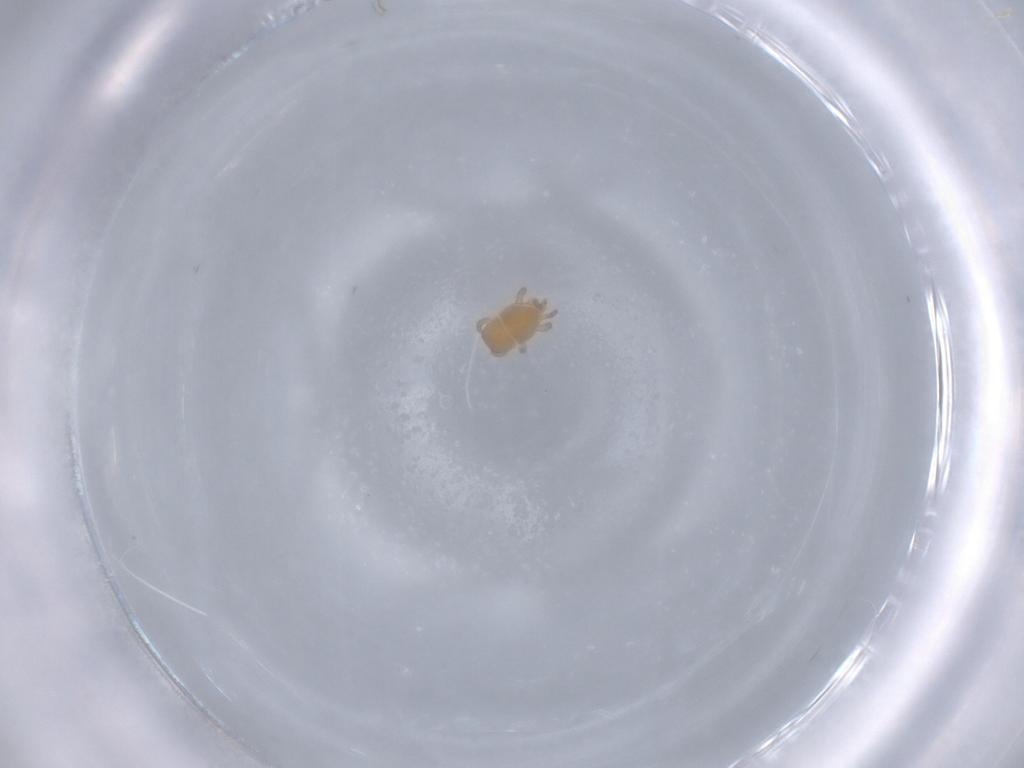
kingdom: Animalia
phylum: Arthropoda
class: Arachnida
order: Mesostigmata
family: Halolaelapidae
